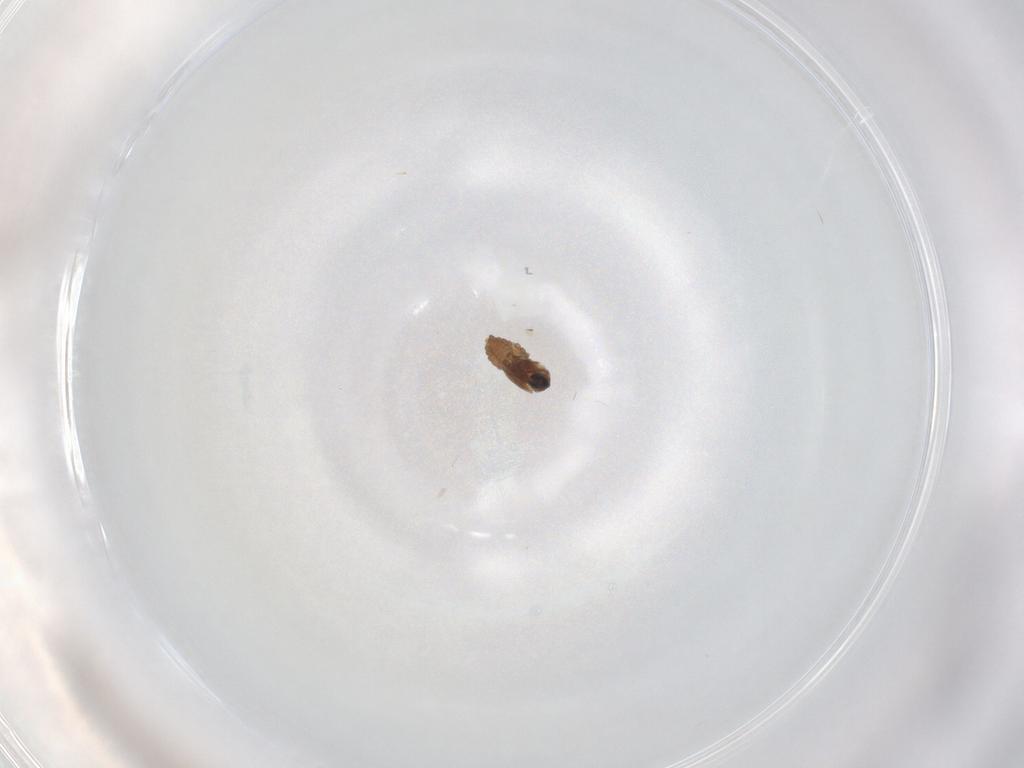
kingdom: Animalia
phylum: Arthropoda
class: Insecta
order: Diptera
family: Cecidomyiidae
